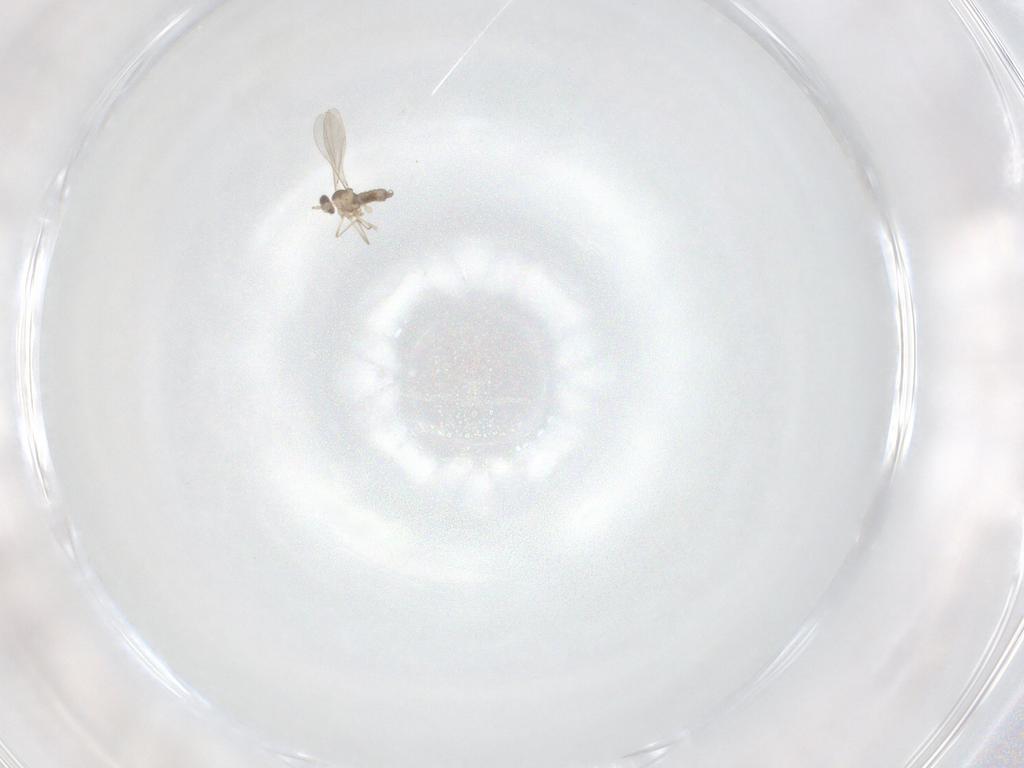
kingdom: Animalia
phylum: Arthropoda
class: Insecta
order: Diptera
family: Cecidomyiidae
